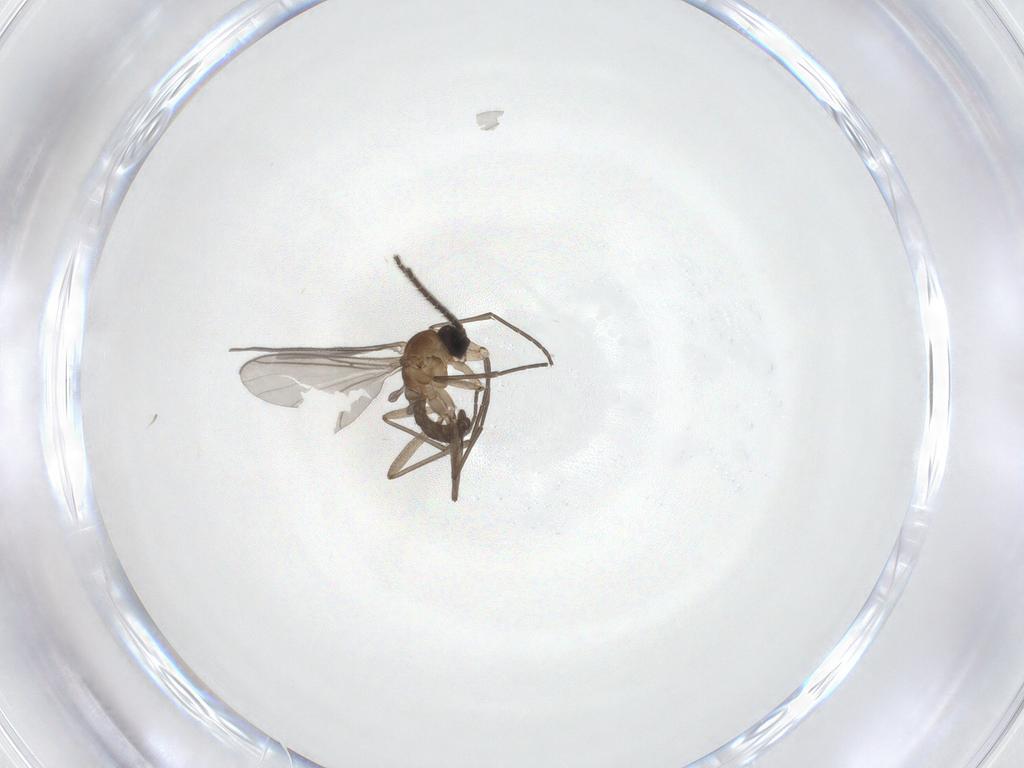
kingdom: Animalia
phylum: Arthropoda
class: Insecta
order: Diptera
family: Sciaridae
